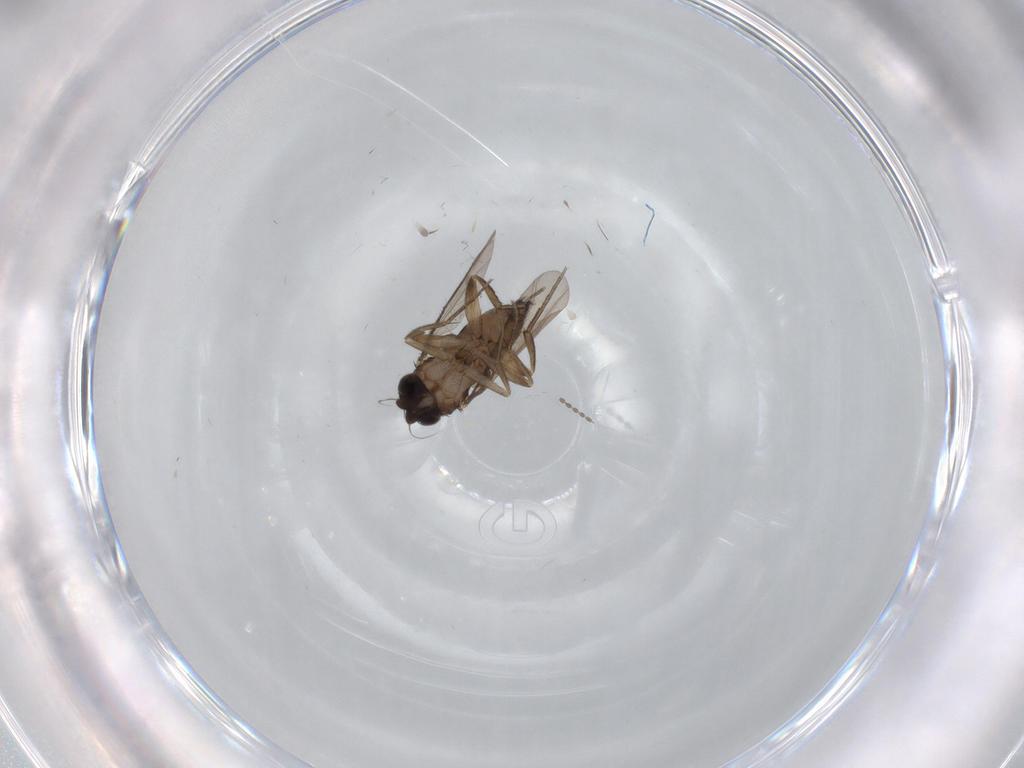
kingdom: Animalia
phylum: Arthropoda
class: Insecta
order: Diptera
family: Phoridae
